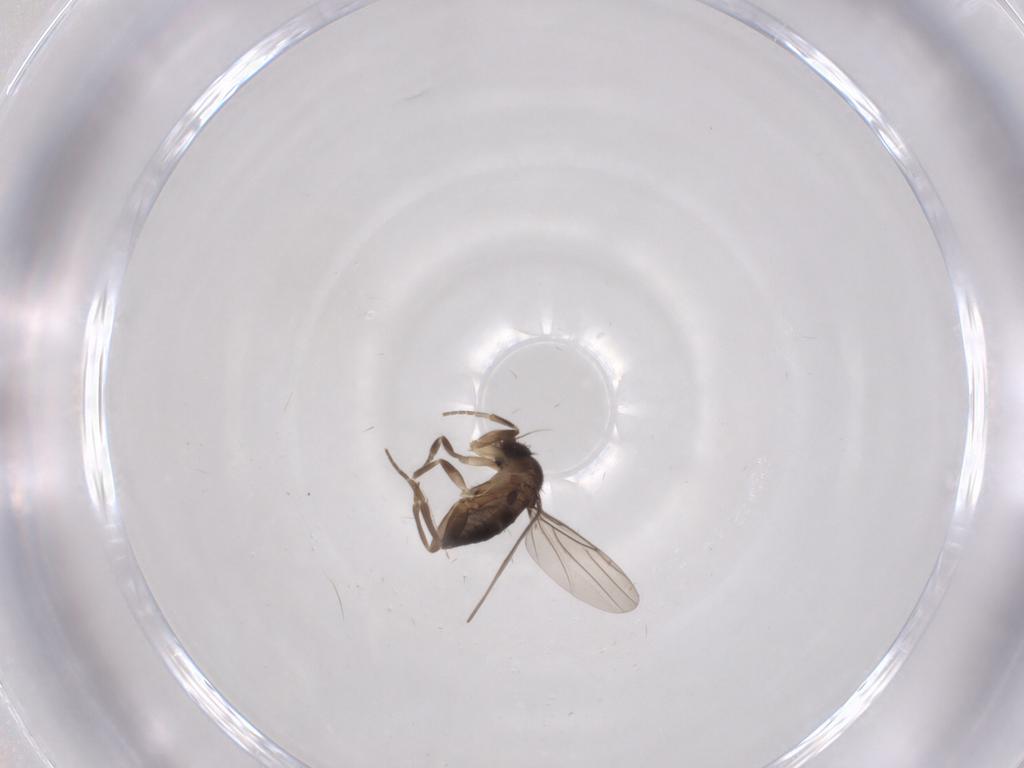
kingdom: Animalia
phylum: Arthropoda
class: Insecta
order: Diptera
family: Phoridae
